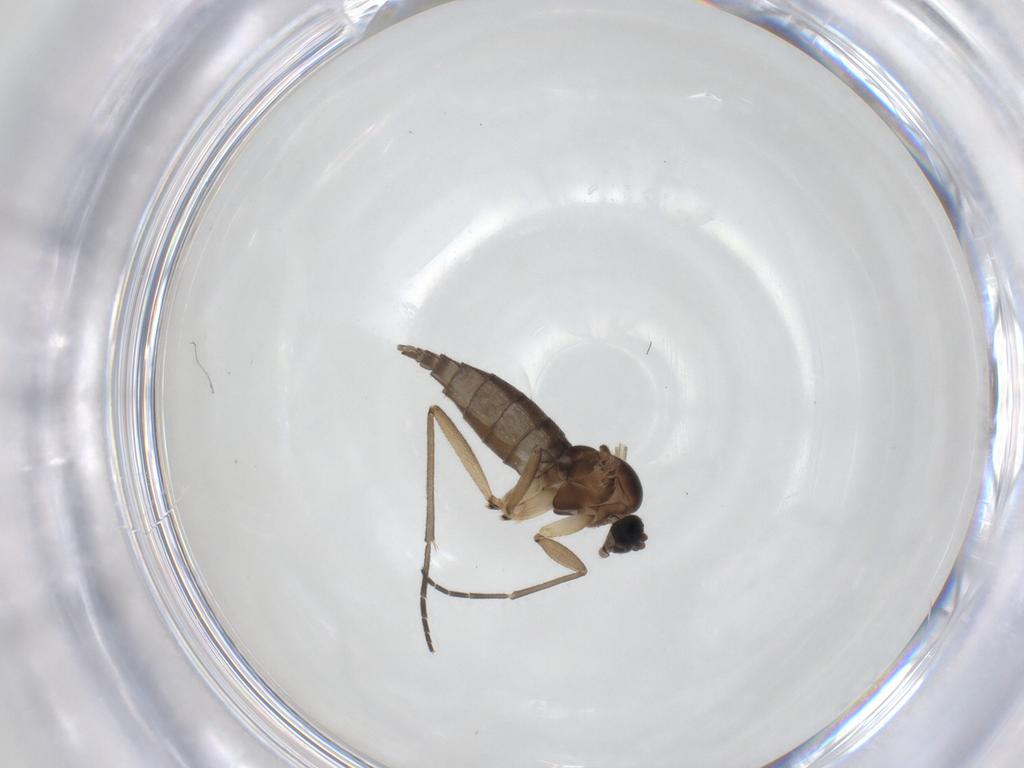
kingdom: Animalia
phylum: Arthropoda
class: Insecta
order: Diptera
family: Sciaridae
